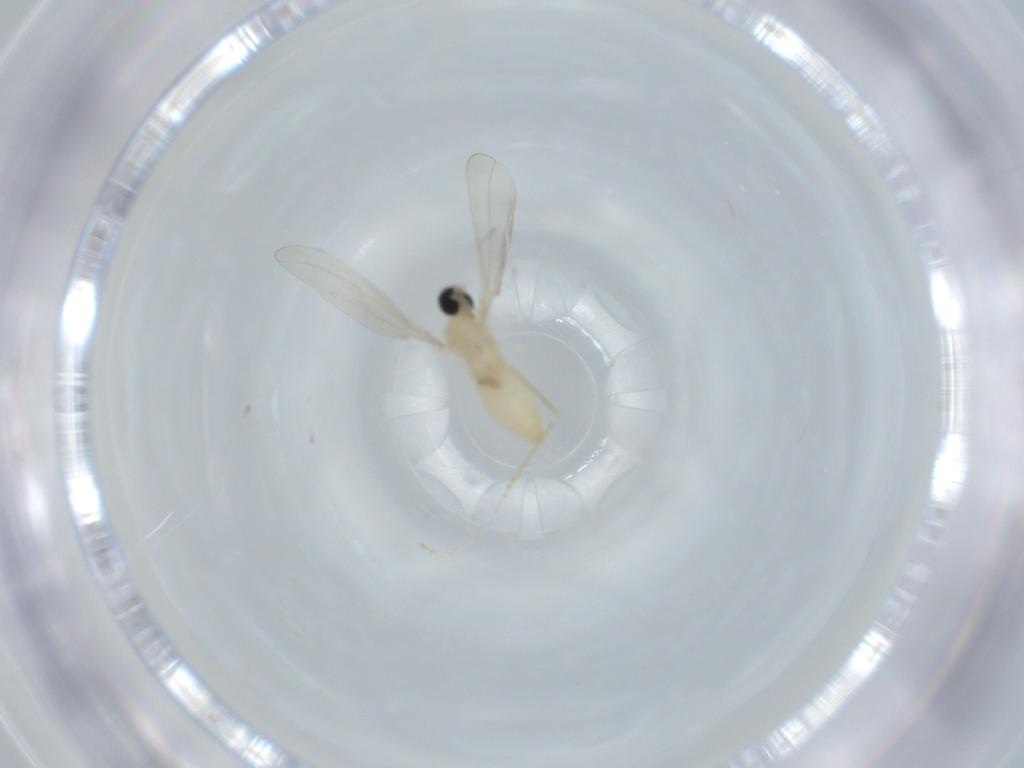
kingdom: Animalia
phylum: Arthropoda
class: Insecta
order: Diptera
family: Cecidomyiidae
